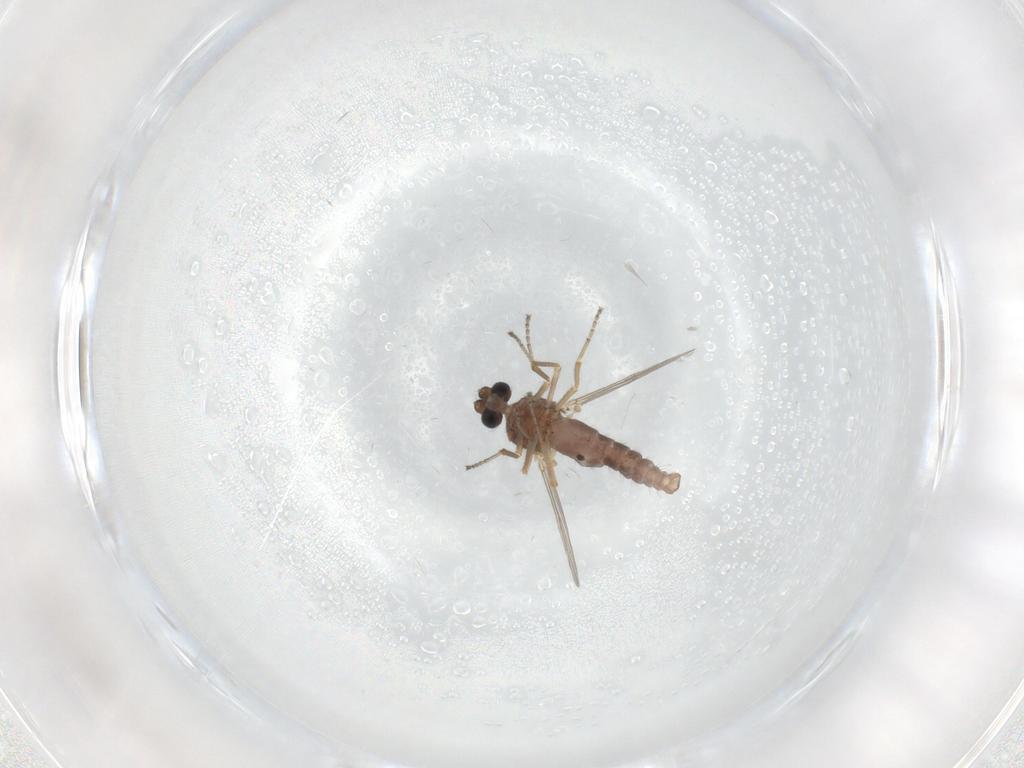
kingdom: Animalia
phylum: Arthropoda
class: Insecta
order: Diptera
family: Ceratopogonidae
